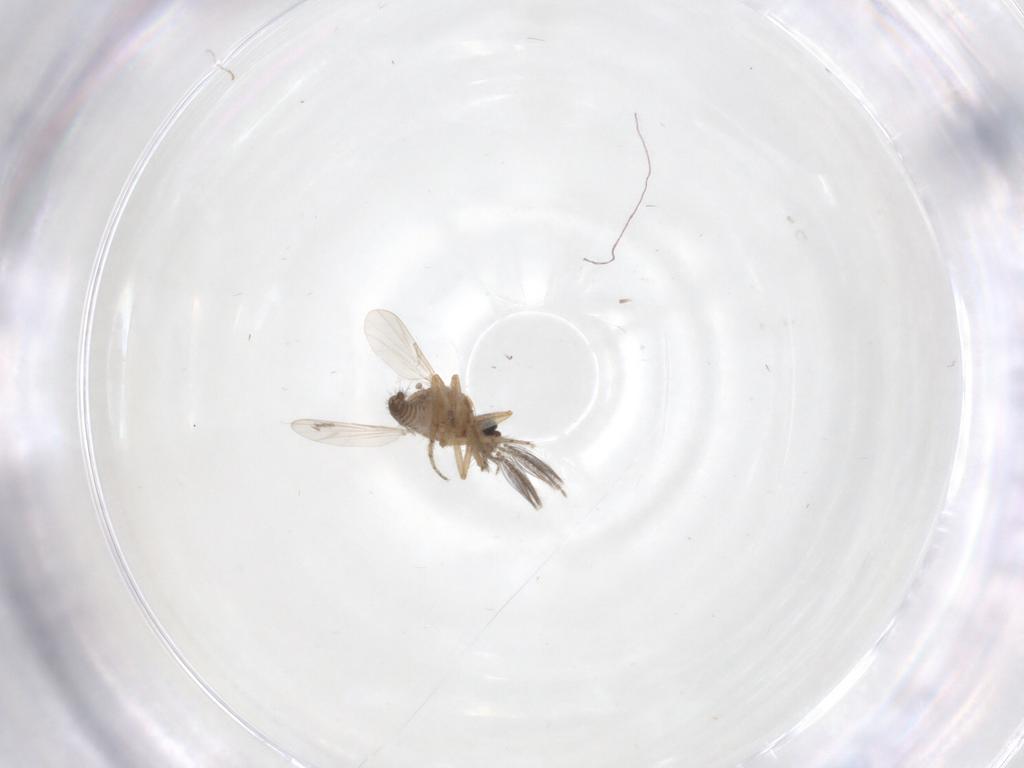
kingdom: Animalia
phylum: Arthropoda
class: Insecta
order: Diptera
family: Ceratopogonidae
